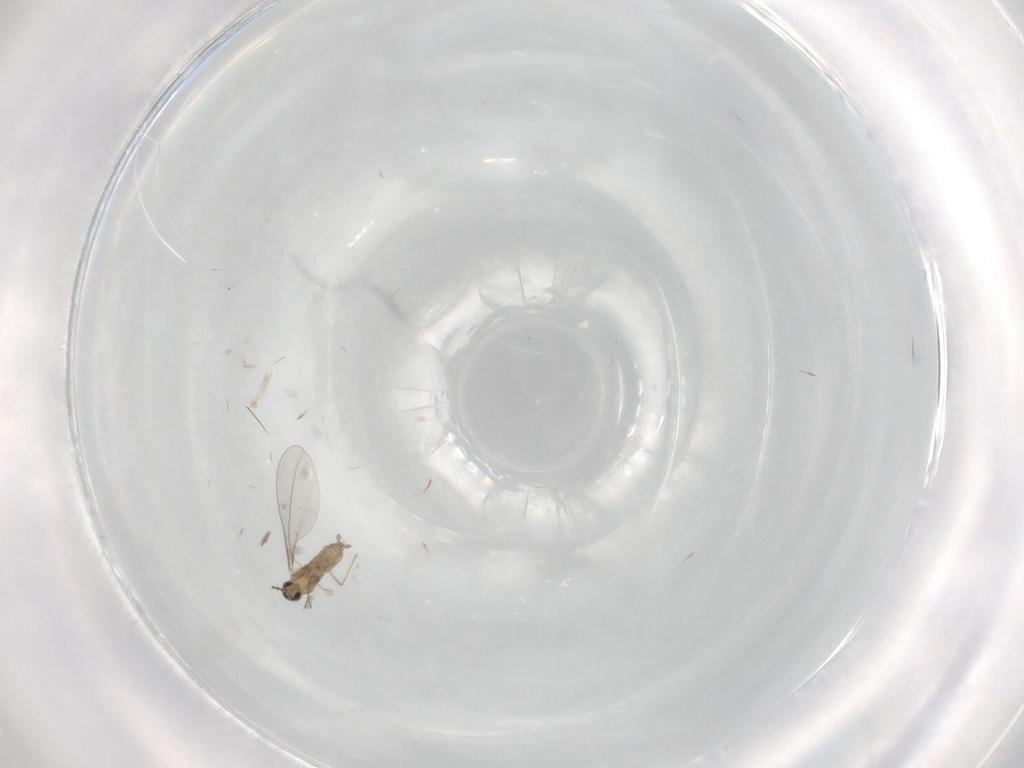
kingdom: Animalia
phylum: Arthropoda
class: Insecta
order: Diptera
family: Cecidomyiidae
